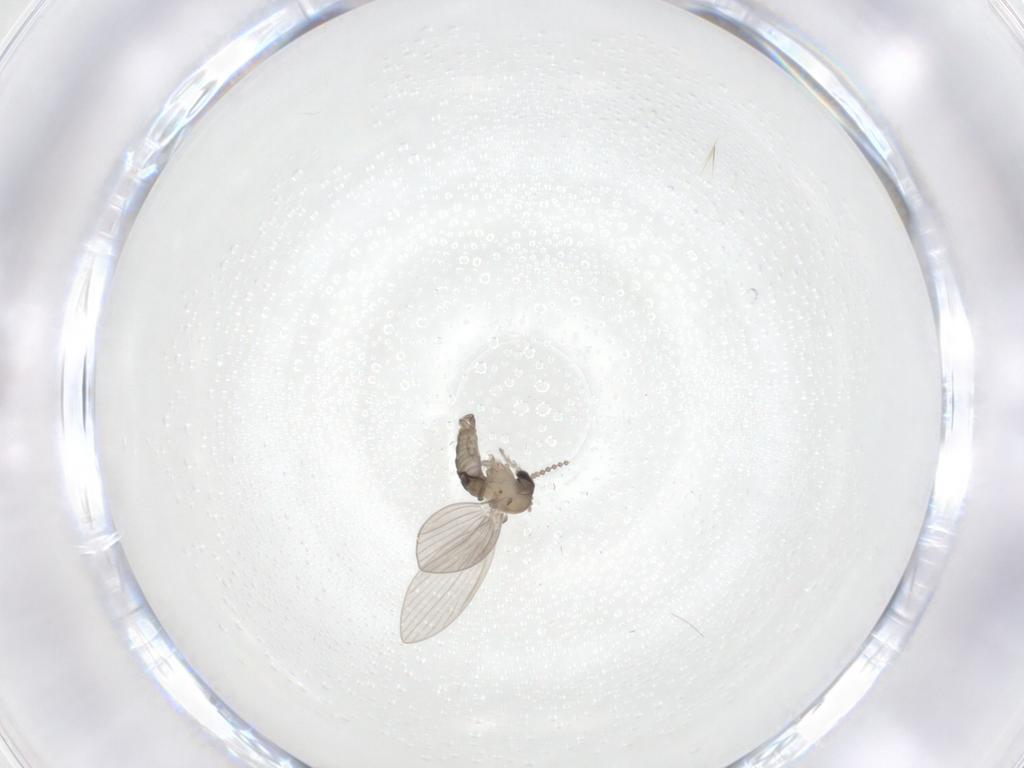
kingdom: Animalia
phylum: Arthropoda
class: Insecta
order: Diptera
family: Psychodidae
